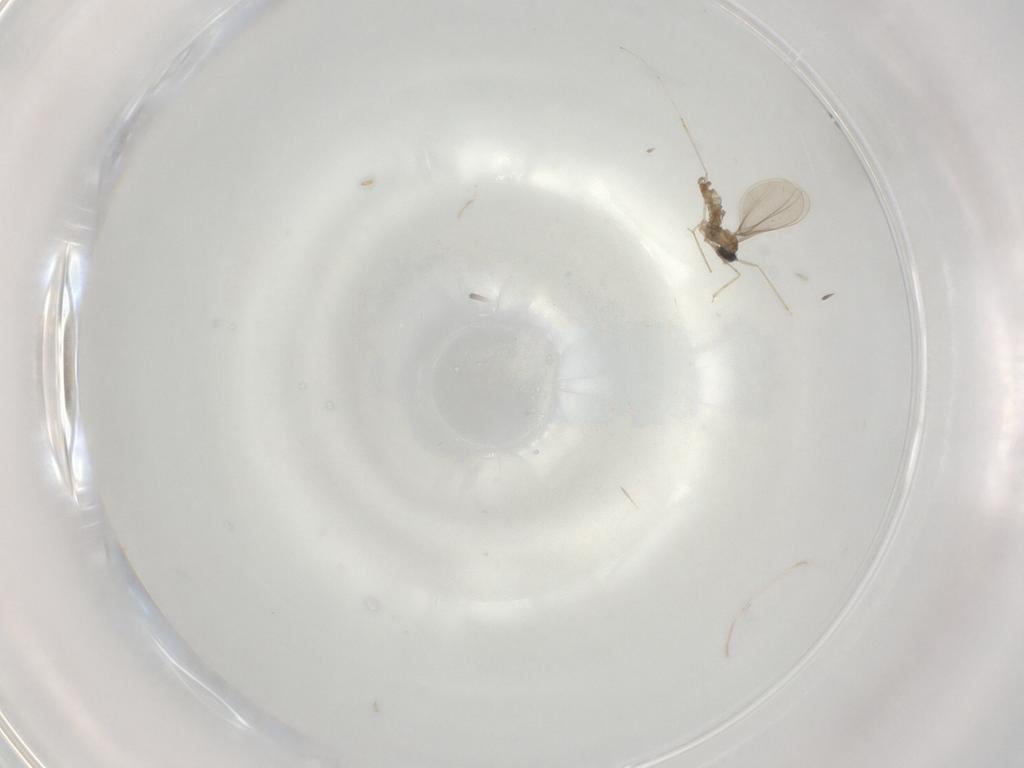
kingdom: Animalia
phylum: Arthropoda
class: Insecta
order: Diptera
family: Cecidomyiidae
